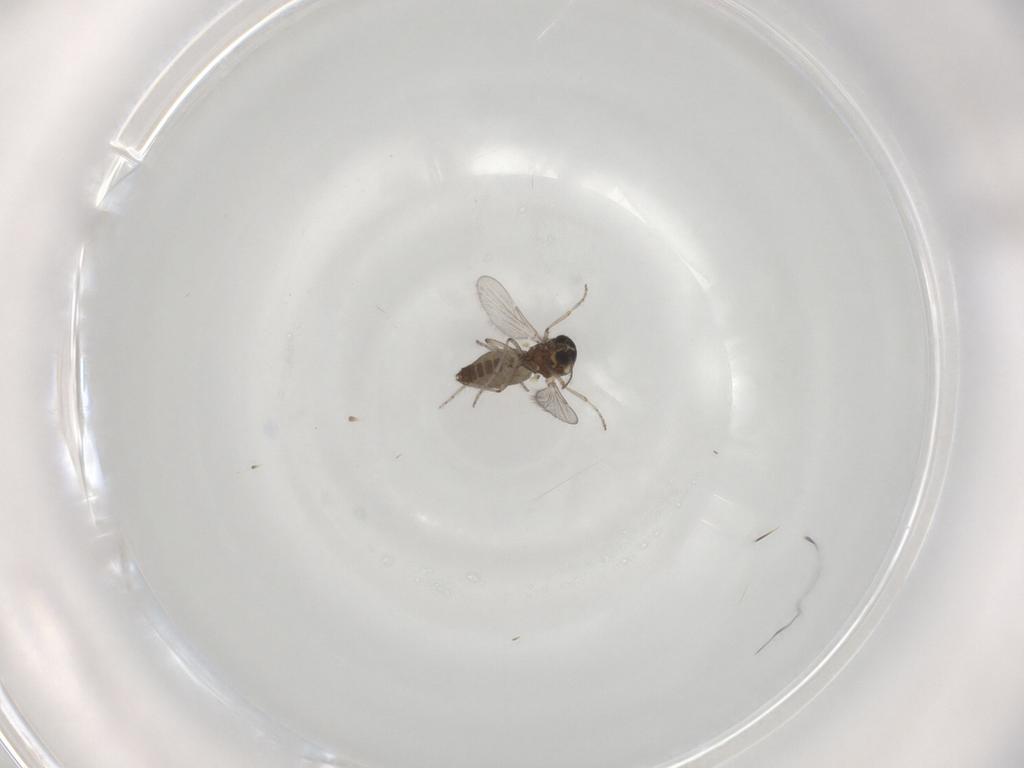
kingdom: Animalia
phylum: Arthropoda
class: Insecta
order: Diptera
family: Ceratopogonidae
